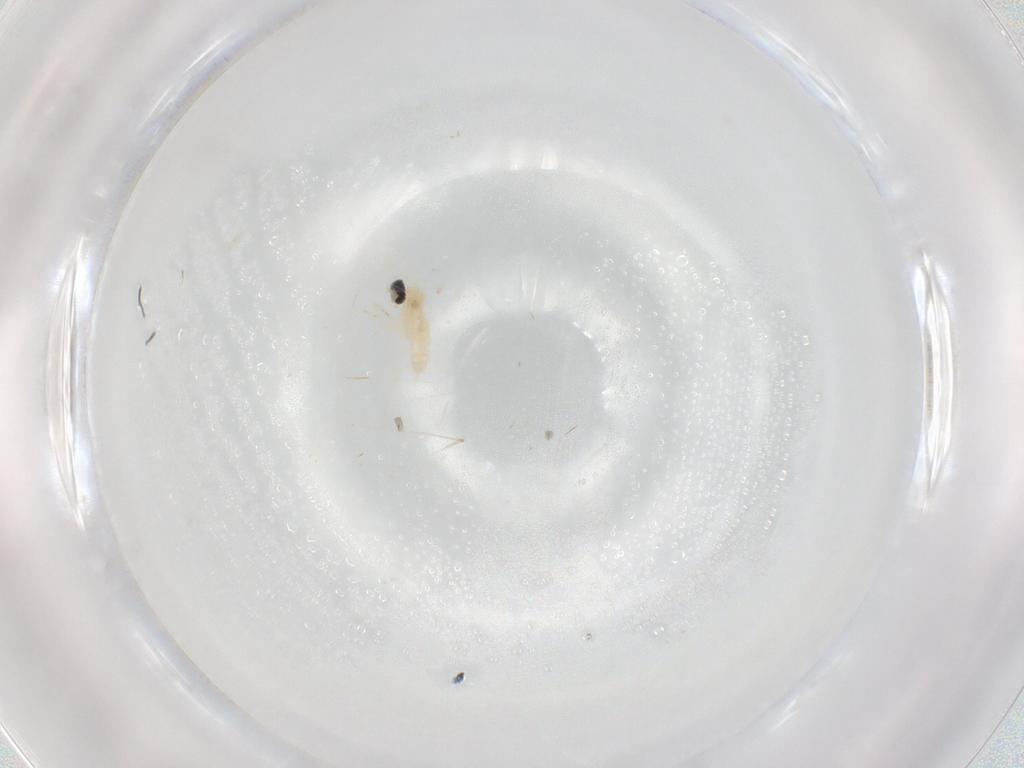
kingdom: Animalia
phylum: Arthropoda
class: Insecta
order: Diptera
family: Cecidomyiidae
